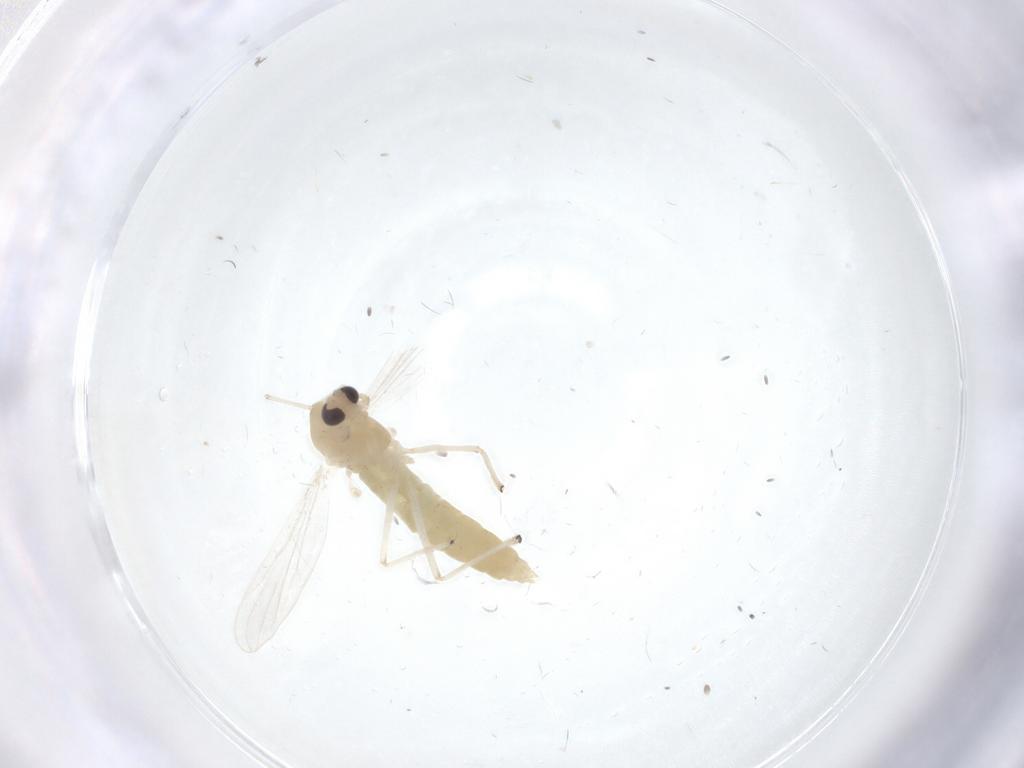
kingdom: Animalia
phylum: Arthropoda
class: Insecta
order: Diptera
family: Chironomidae
